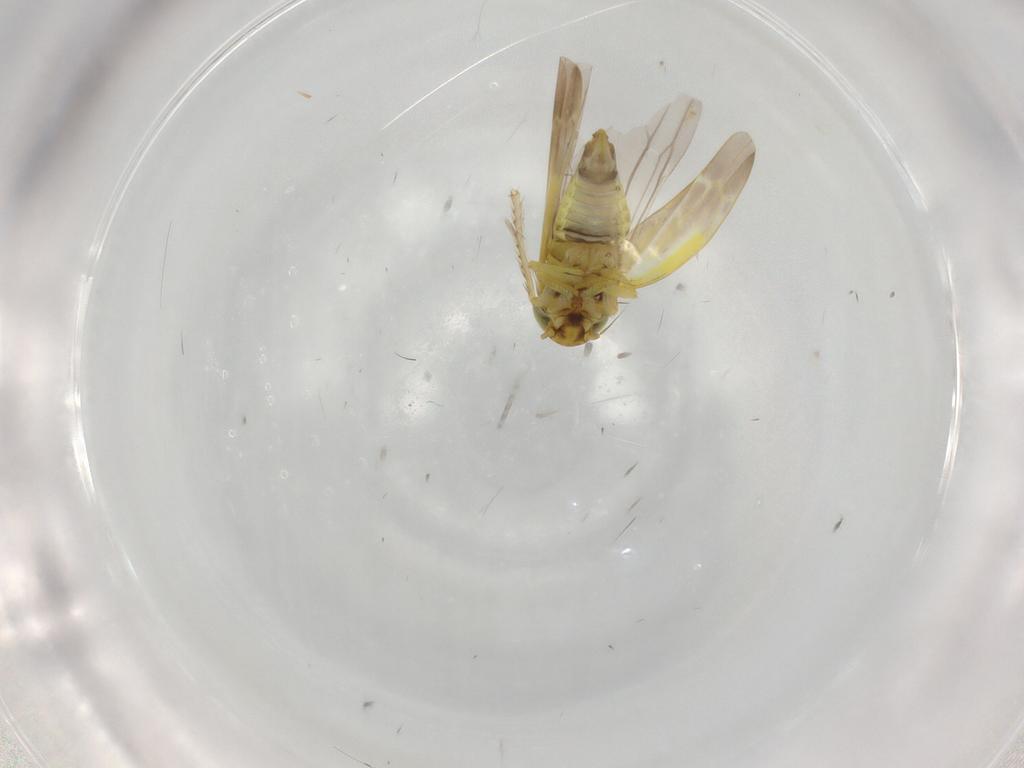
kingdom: Animalia
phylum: Arthropoda
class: Insecta
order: Hemiptera
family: Cicadellidae
